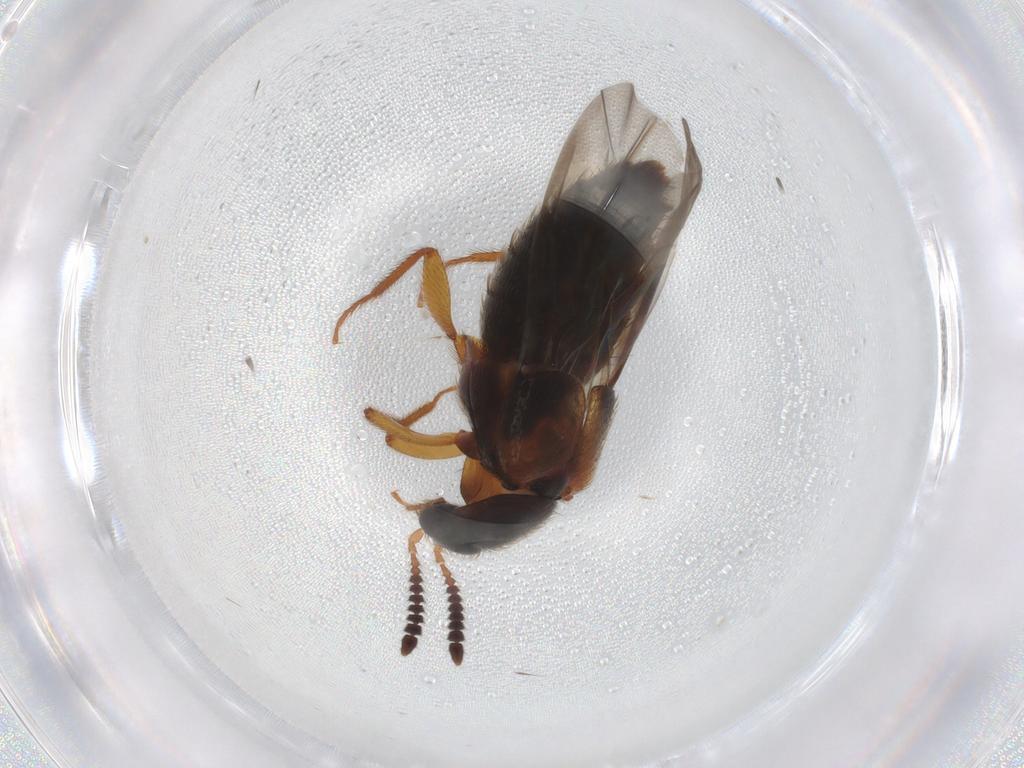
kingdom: Animalia
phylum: Arthropoda
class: Insecta
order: Coleoptera
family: Staphylinidae
